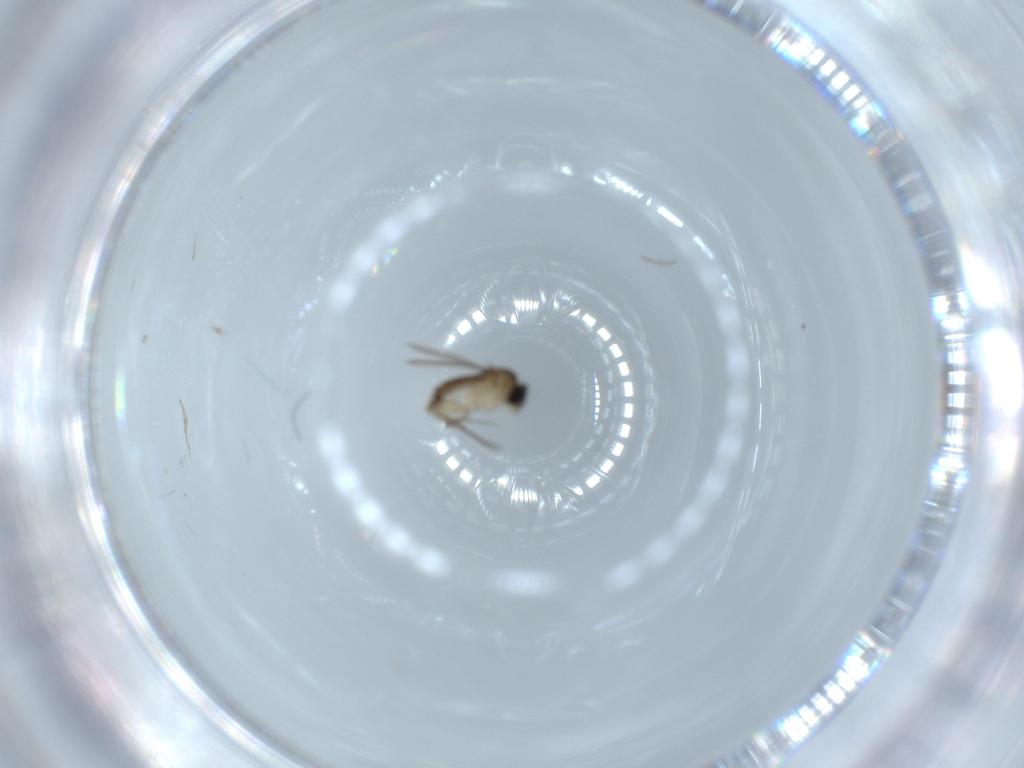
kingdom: Animalia
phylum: Arthropoda
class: Insecta
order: Diptera
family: Phoridae
